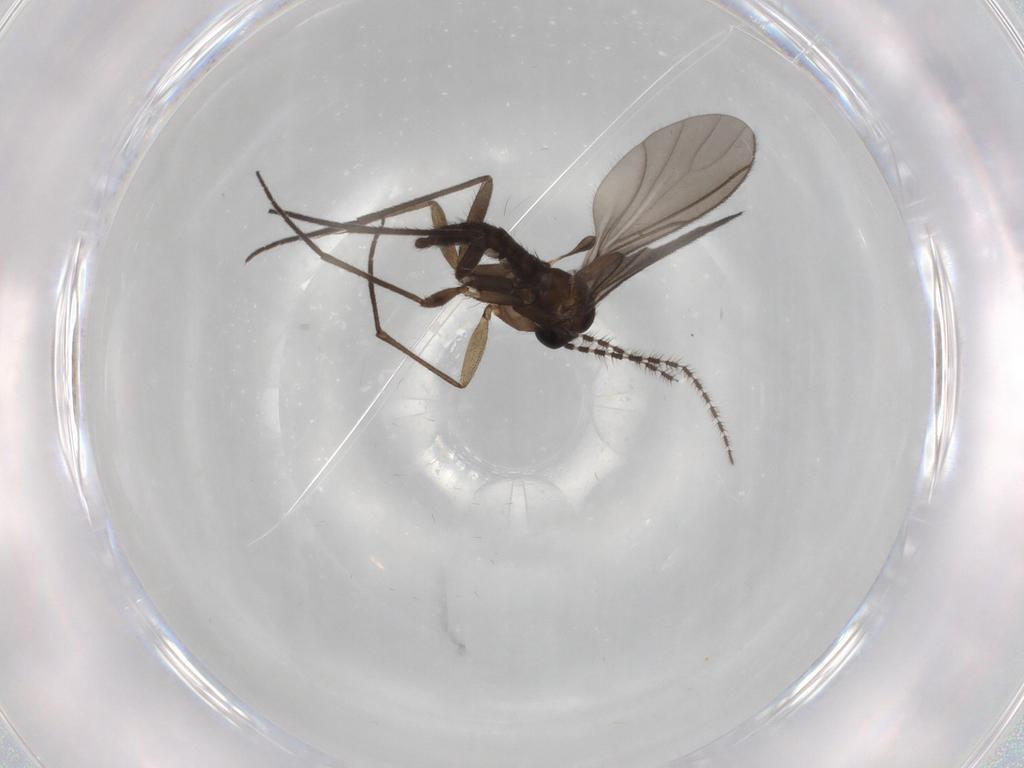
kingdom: Animalia
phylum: Arthropoda
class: Insecta
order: Diptera
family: Sciaridae
